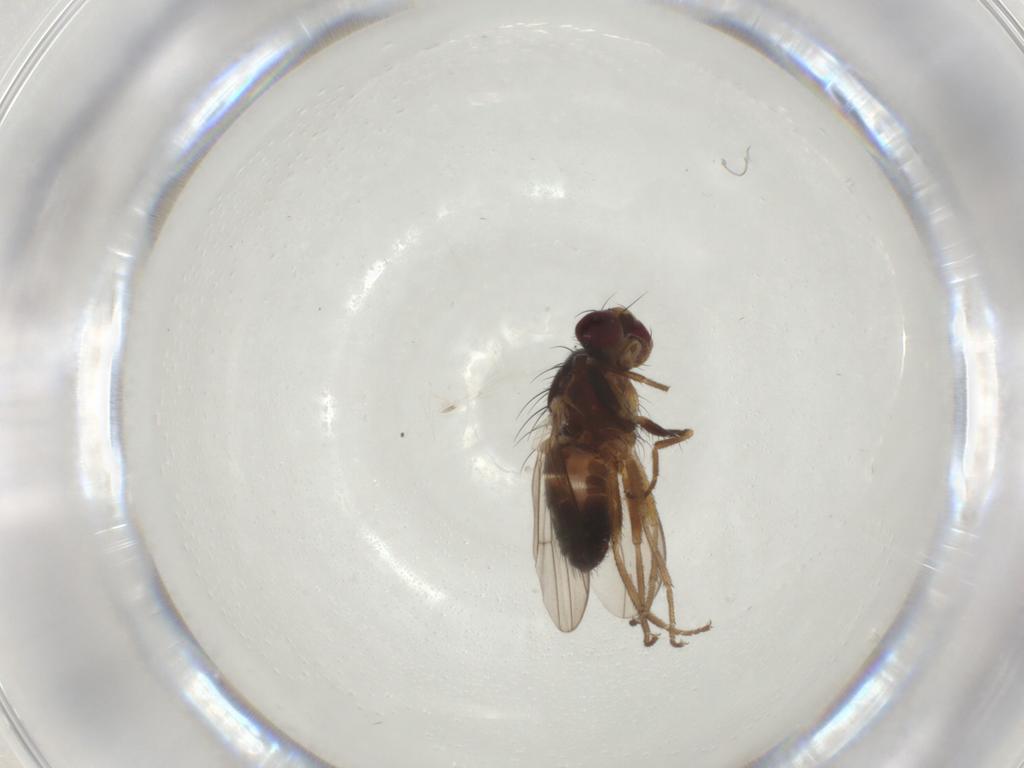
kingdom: Animalia
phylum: Arthropoda
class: Insecta
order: Diptera
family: Heleomyzidae
